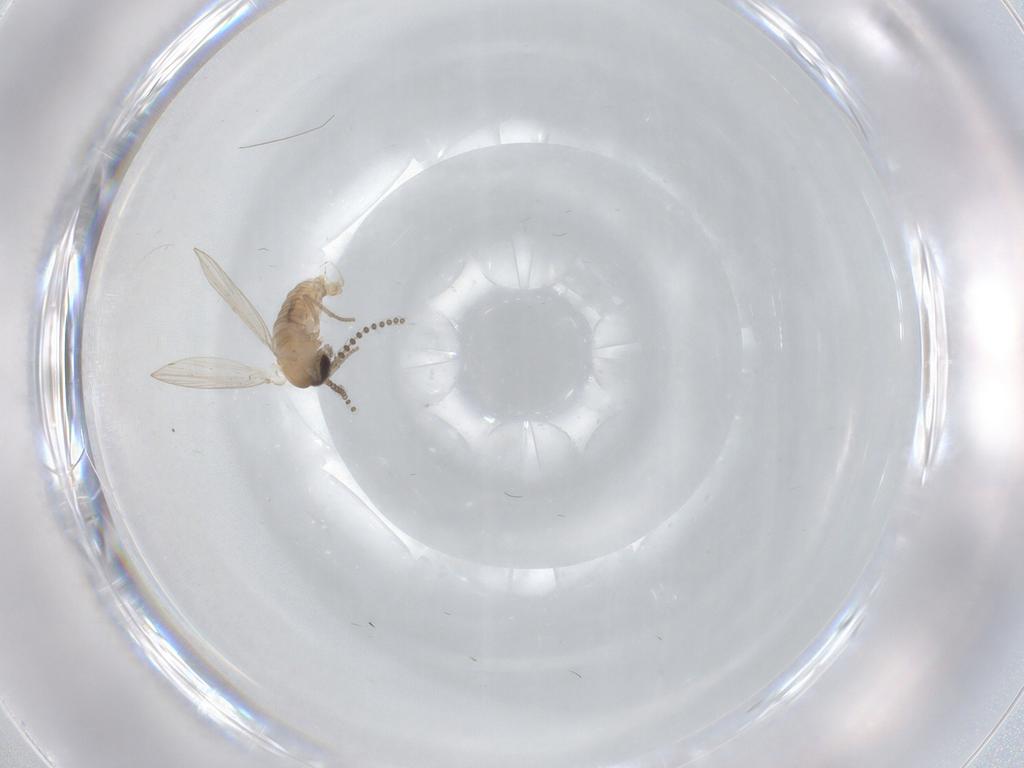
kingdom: Animalia
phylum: Arthropoda
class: Insecta
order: Diptera
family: Psychodidae
